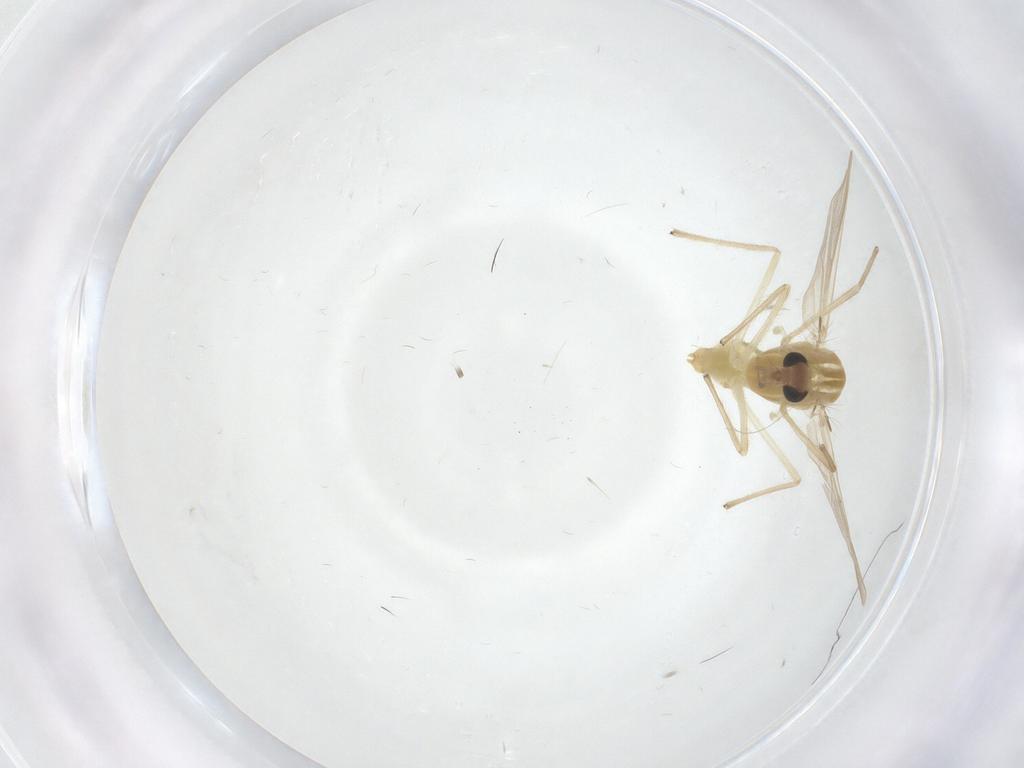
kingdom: Animalia
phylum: Arthropoda
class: Insecta
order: Diptera
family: Chironomidae
